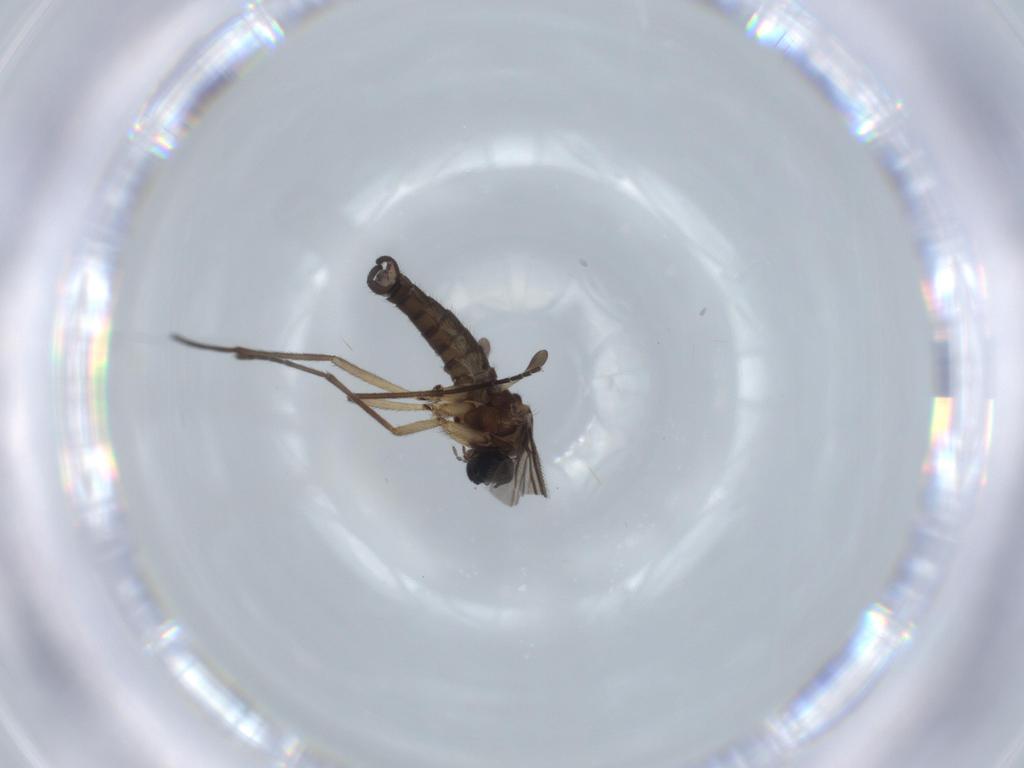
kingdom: Animalia
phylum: Arthropoda
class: Insecta
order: Diptera
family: Sciaridae
